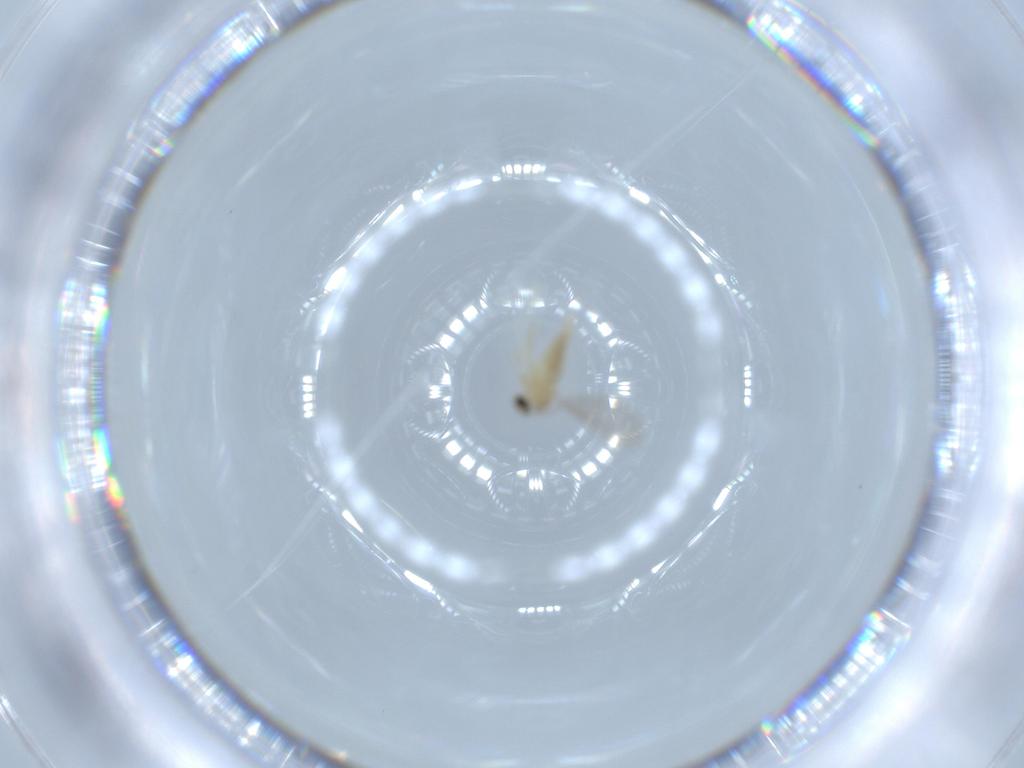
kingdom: Animalia
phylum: Arthropoda
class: Insecta
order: Diptera
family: Cecidomyiidae
